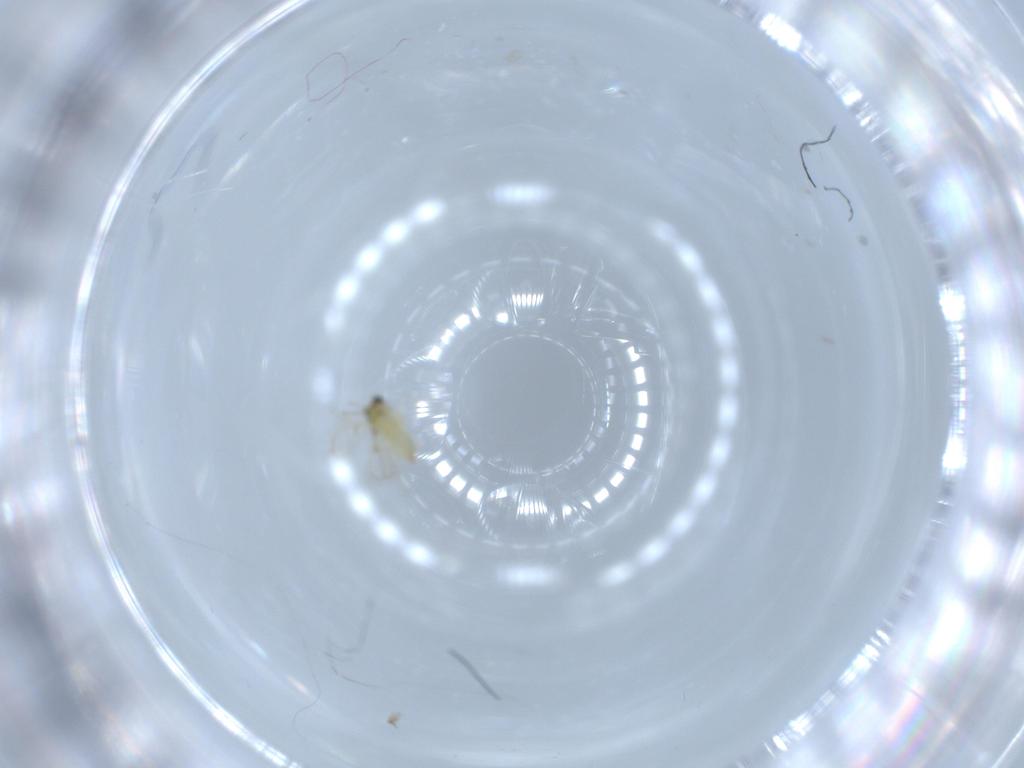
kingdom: Animalia
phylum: Arthropoda
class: Insecta
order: Hymenoptera
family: Trichogrammatidae
